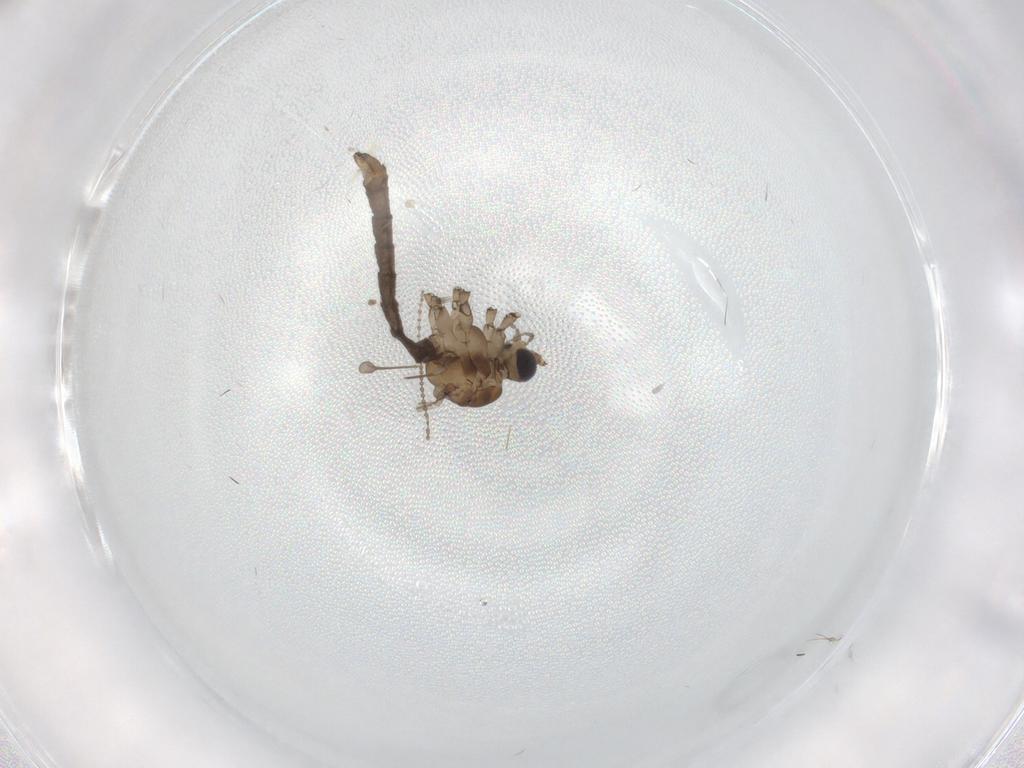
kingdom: Animalia
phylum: Arthropoda
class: Insecta
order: Diptera
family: Limoniidae
